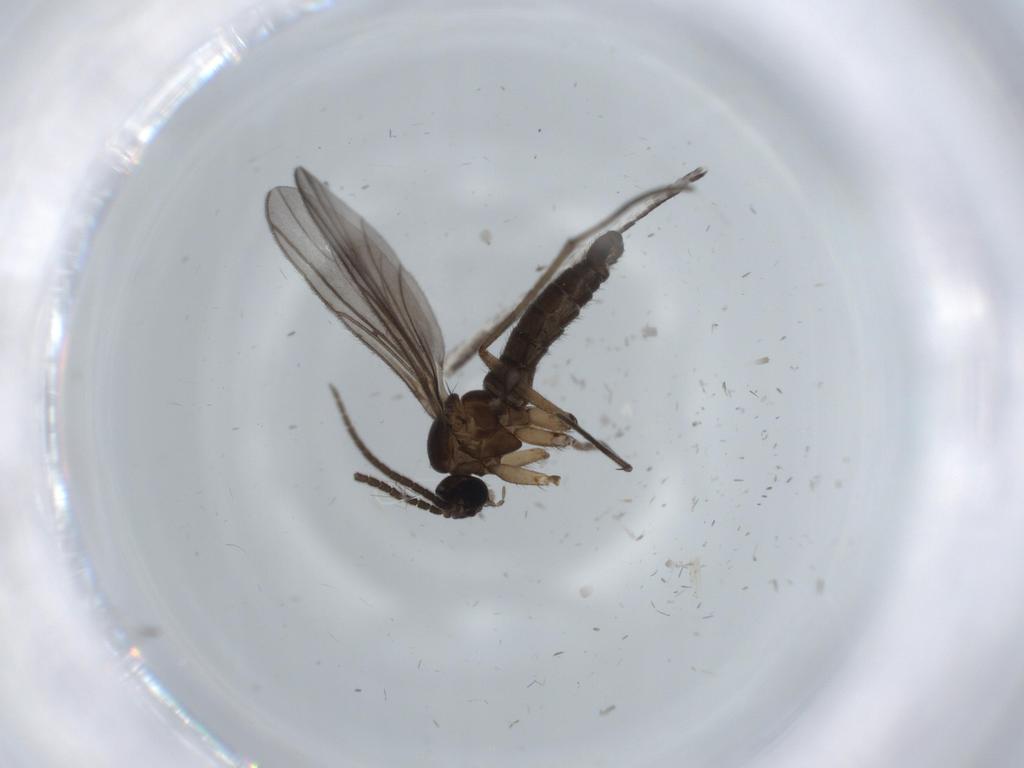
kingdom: Animalia
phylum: Arthropoda
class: Insecta
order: Diptera
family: Sciaridae
